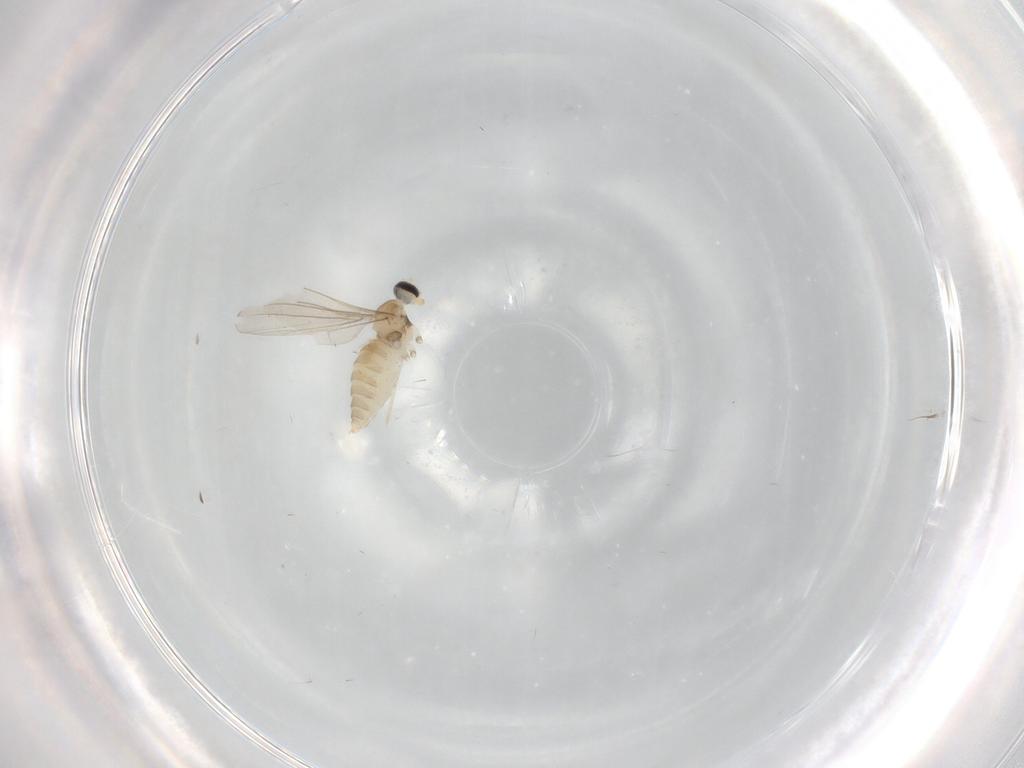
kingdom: Animalia
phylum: Arthropoda
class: Insecta
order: Diptera
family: Cecidomyiidae
